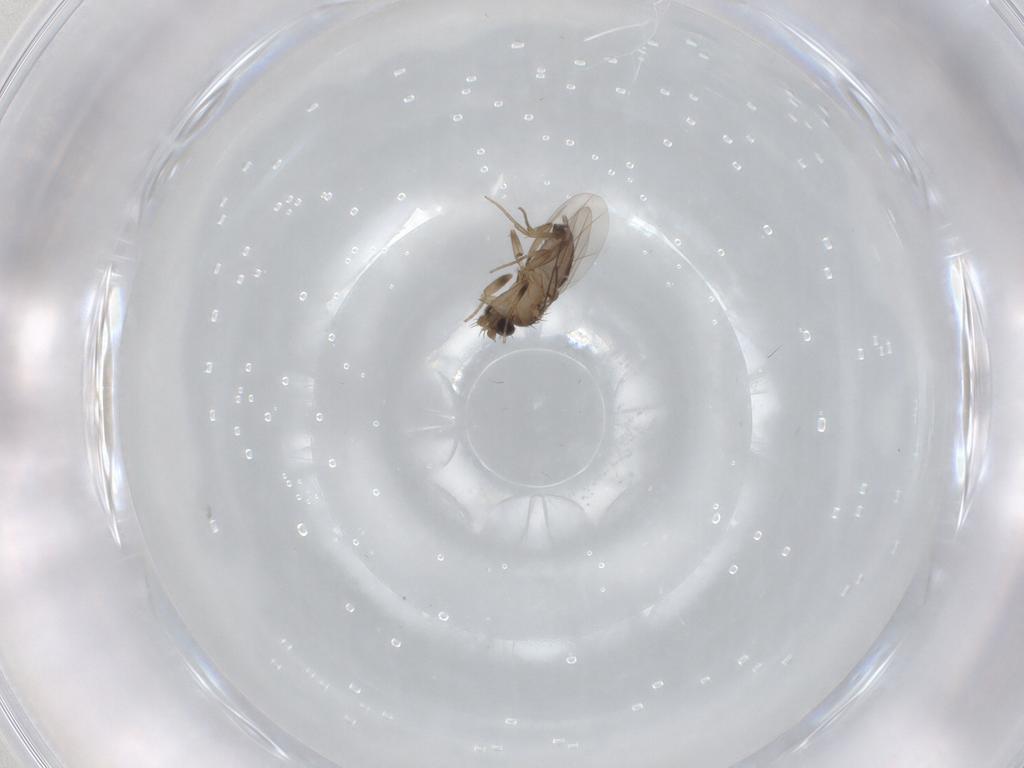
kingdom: Animalia
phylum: Arthropoda
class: Insecta
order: Diptera
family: Phoridae
